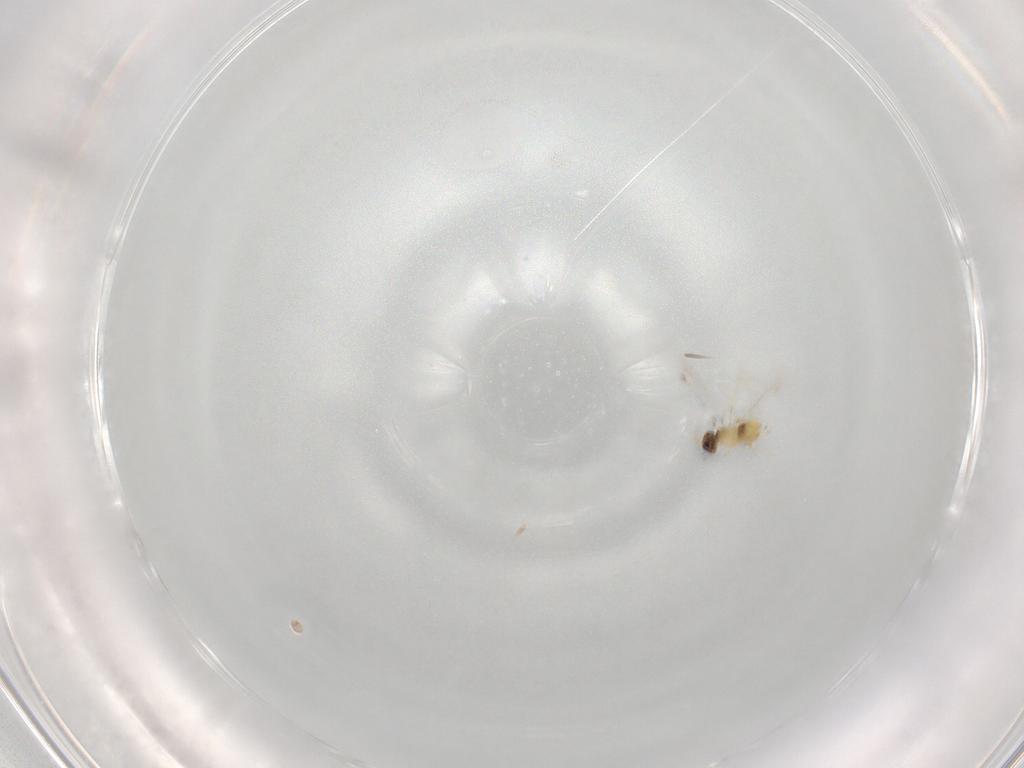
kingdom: Animalia
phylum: Arthropoda
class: Insecta
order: Hymenoptera
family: Mymaridae
